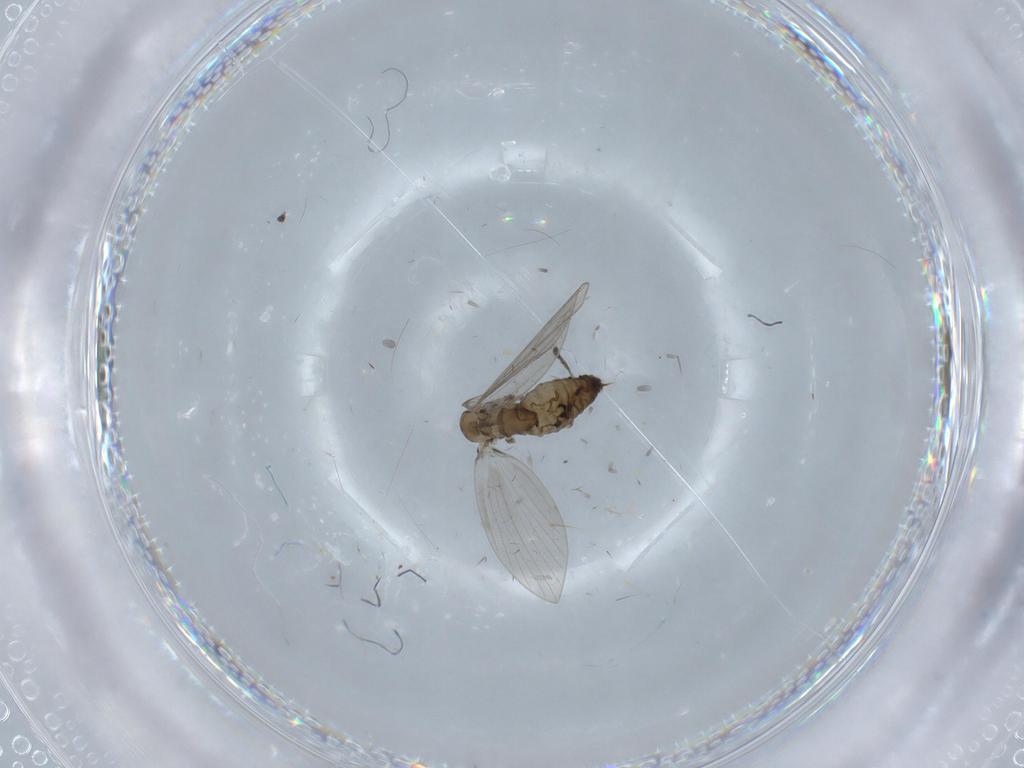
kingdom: Animalia
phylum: Arthropoda
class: Insecta
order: Diptera
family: Drosophilidae
